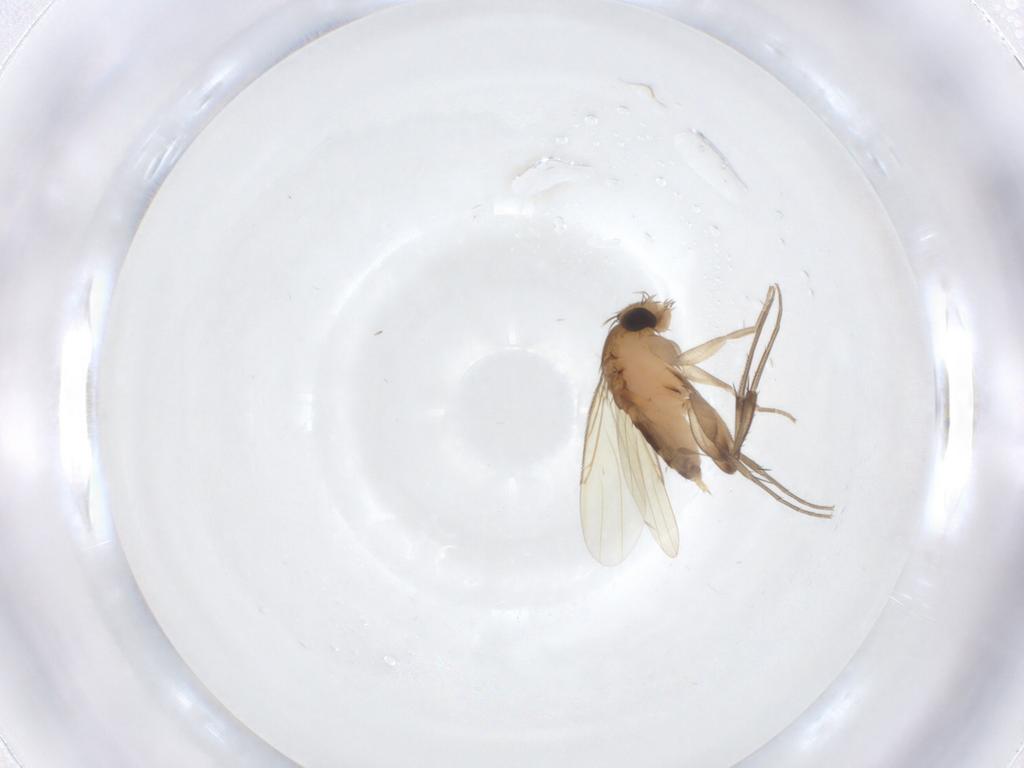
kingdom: Animalia
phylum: Arthropoda
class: Insecta
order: Diptera
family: Phoridae
